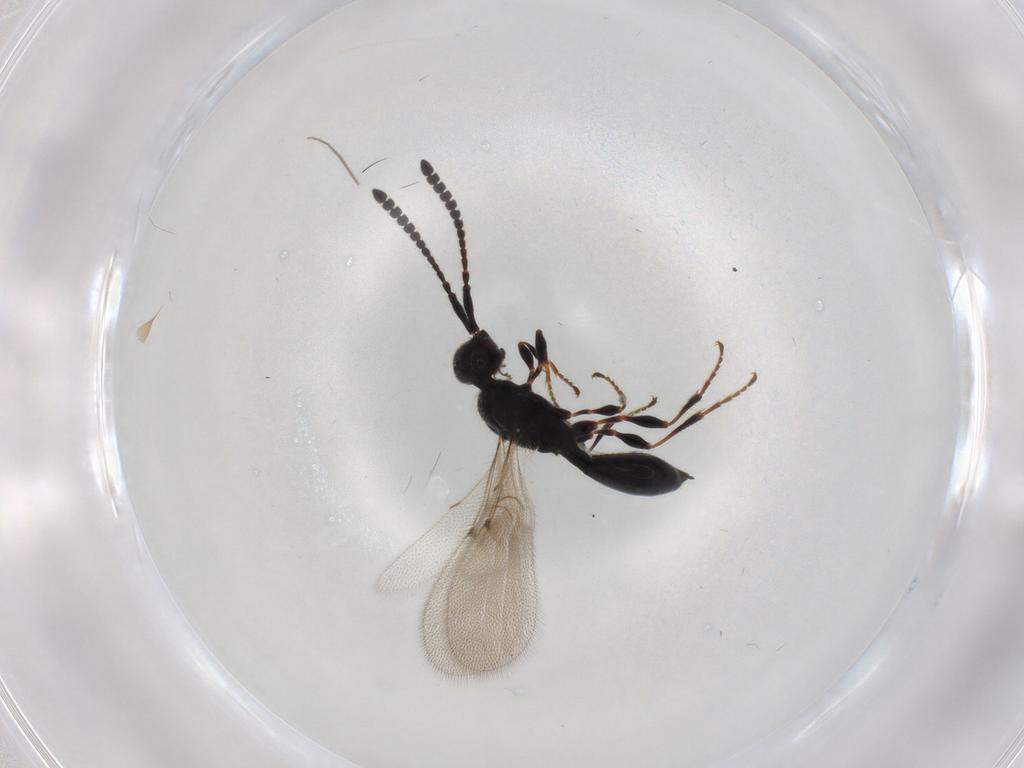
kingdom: Animalia
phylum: Arthropoda
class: Insecta
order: Hymenoptera
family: Diapriidae
